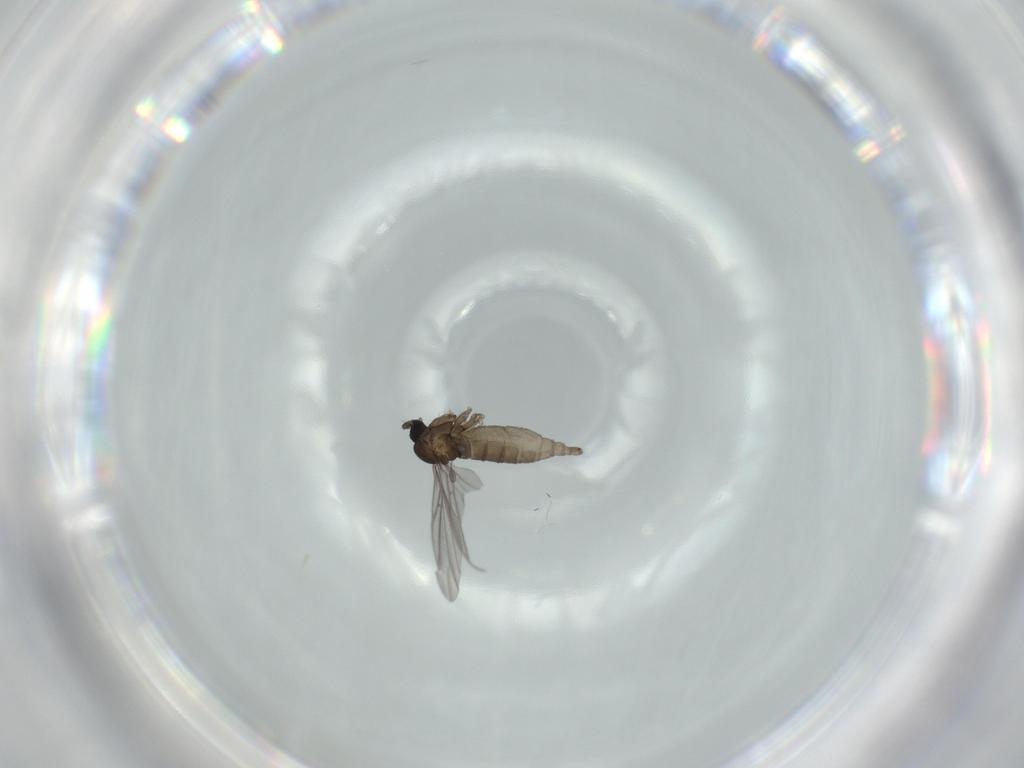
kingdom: Animalia
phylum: Arthropoda
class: Insecta
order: Diptera
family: Sciaridae
